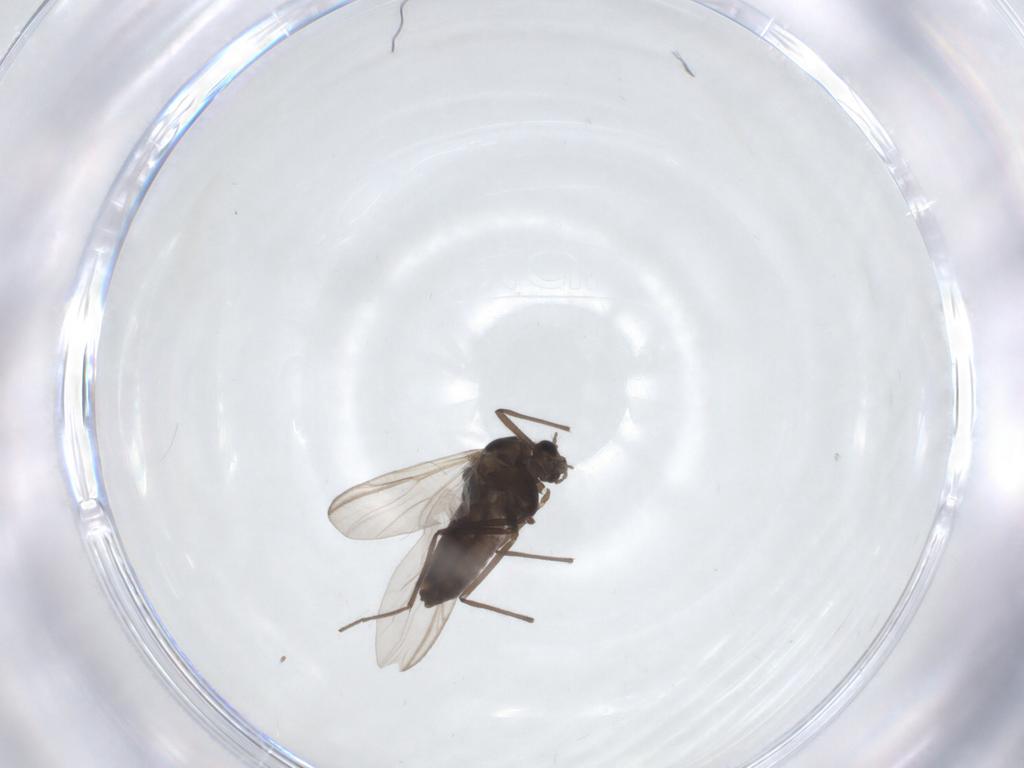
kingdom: Animalia
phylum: Arthropoda
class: Insecta
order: Diptera
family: Chironomidae
